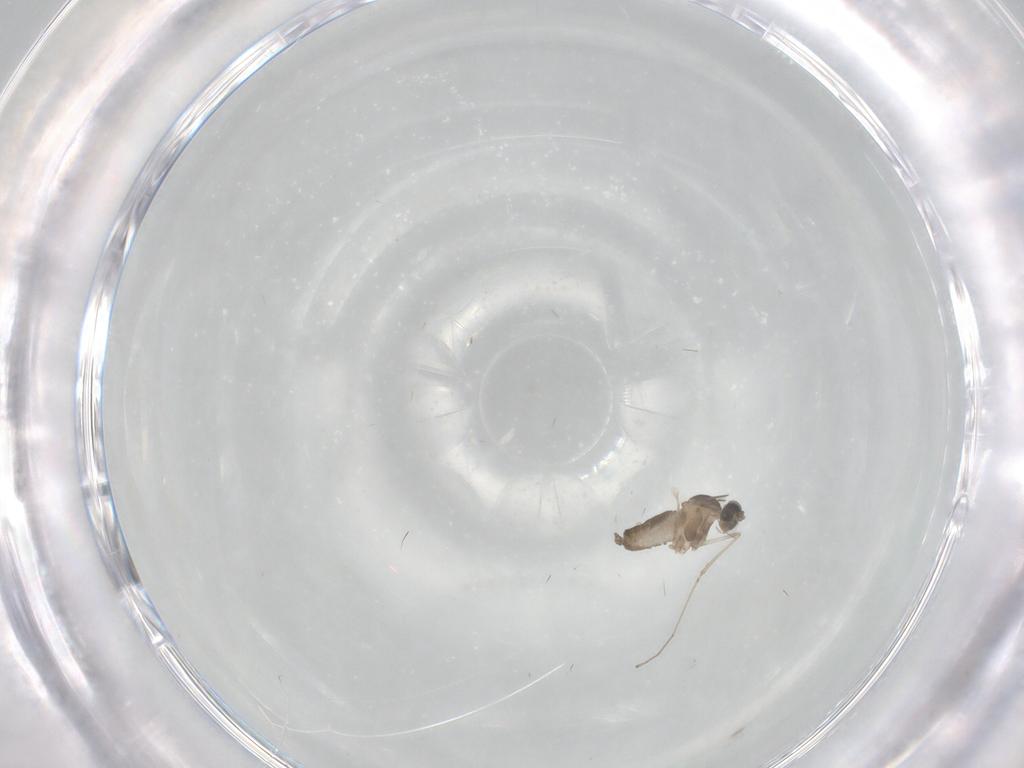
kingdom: Animalia
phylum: Arthropoda
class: Insecta
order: Diptera
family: Cecidomyiidae
